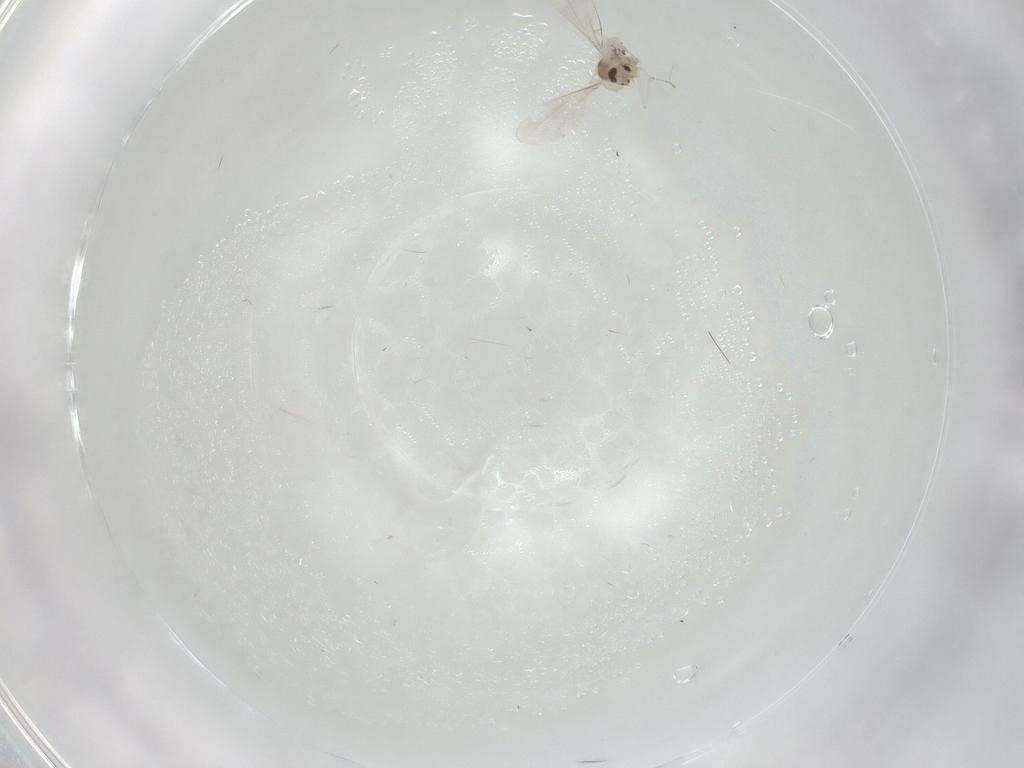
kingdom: Animalia
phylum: Arthropoda
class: Insecta
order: Diptera
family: Cecidomyiidae
